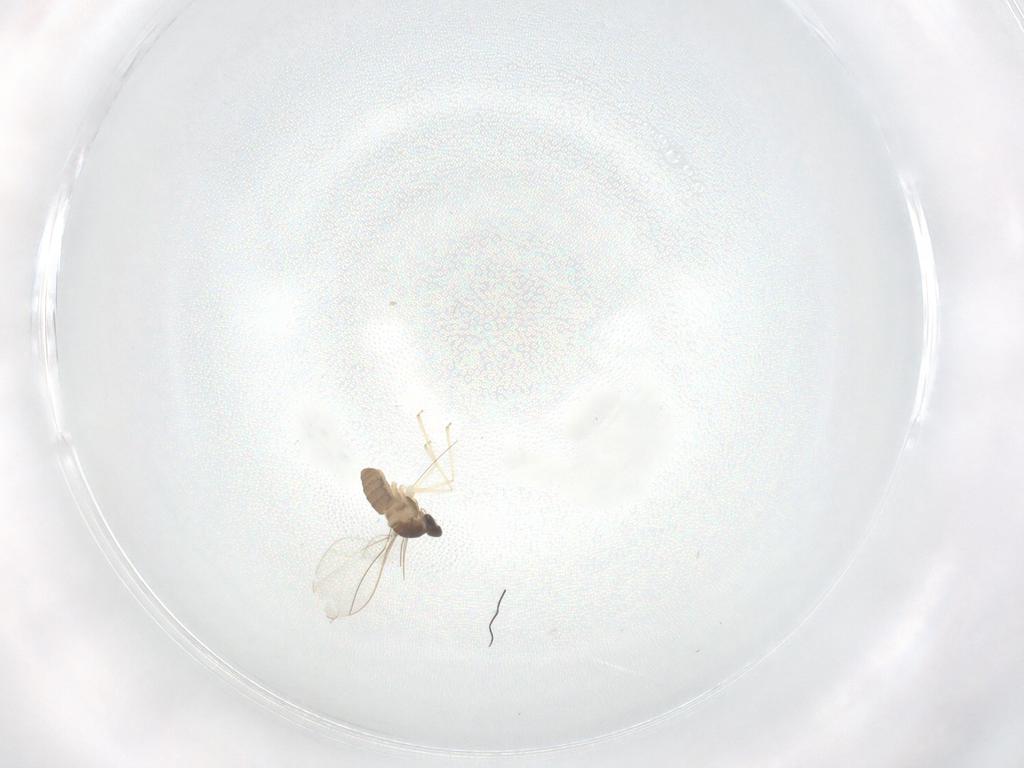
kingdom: Animalia
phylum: Arthropoda
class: Insecta
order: Diptera
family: Cecidomyiidae
